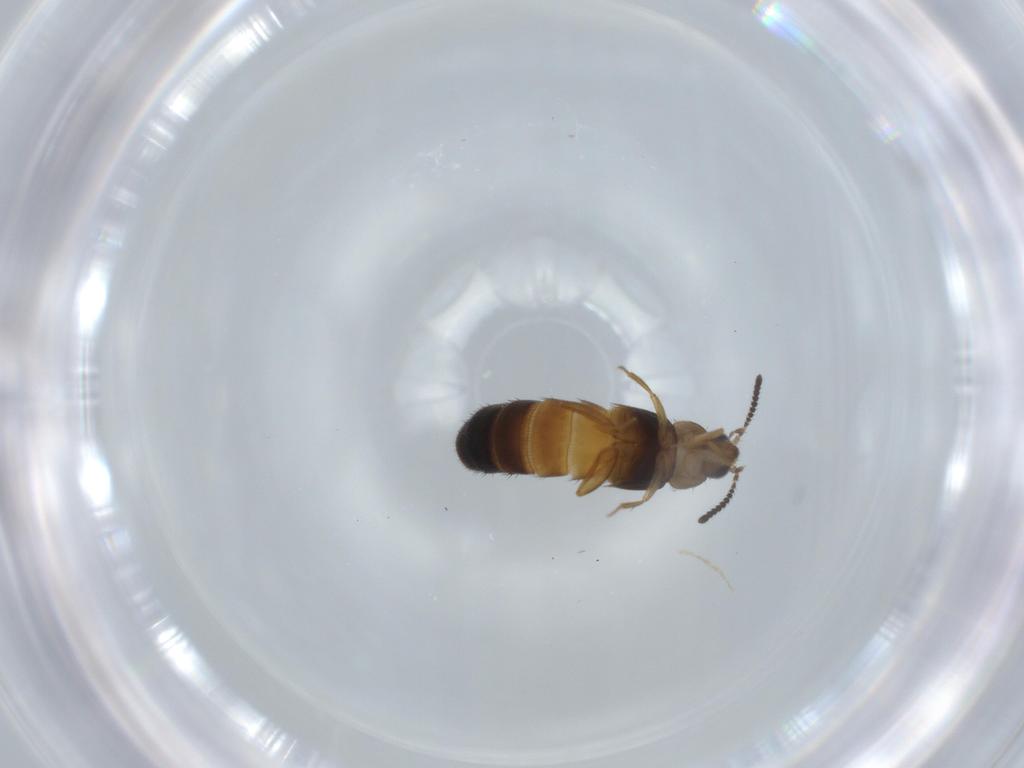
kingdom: Animalia
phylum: Arthropoda
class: Insecta
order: Coleoptera
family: Staphylinidae
